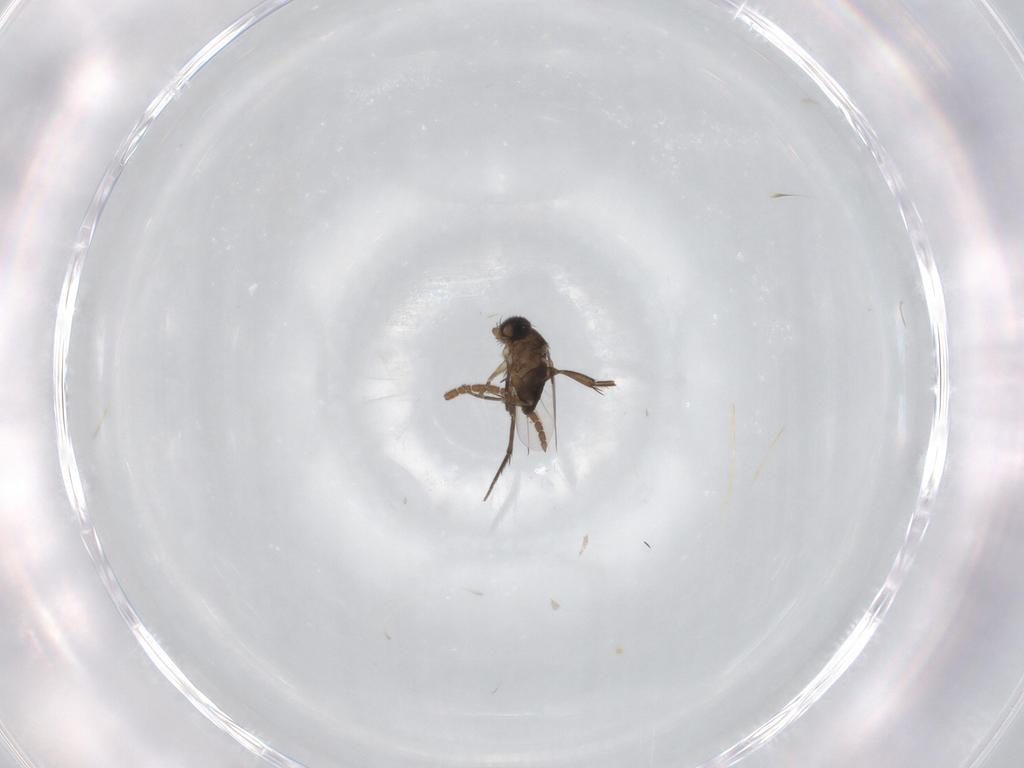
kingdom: Animalia
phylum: Arthropoda
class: Insecta
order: Diptera
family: Phoridae
